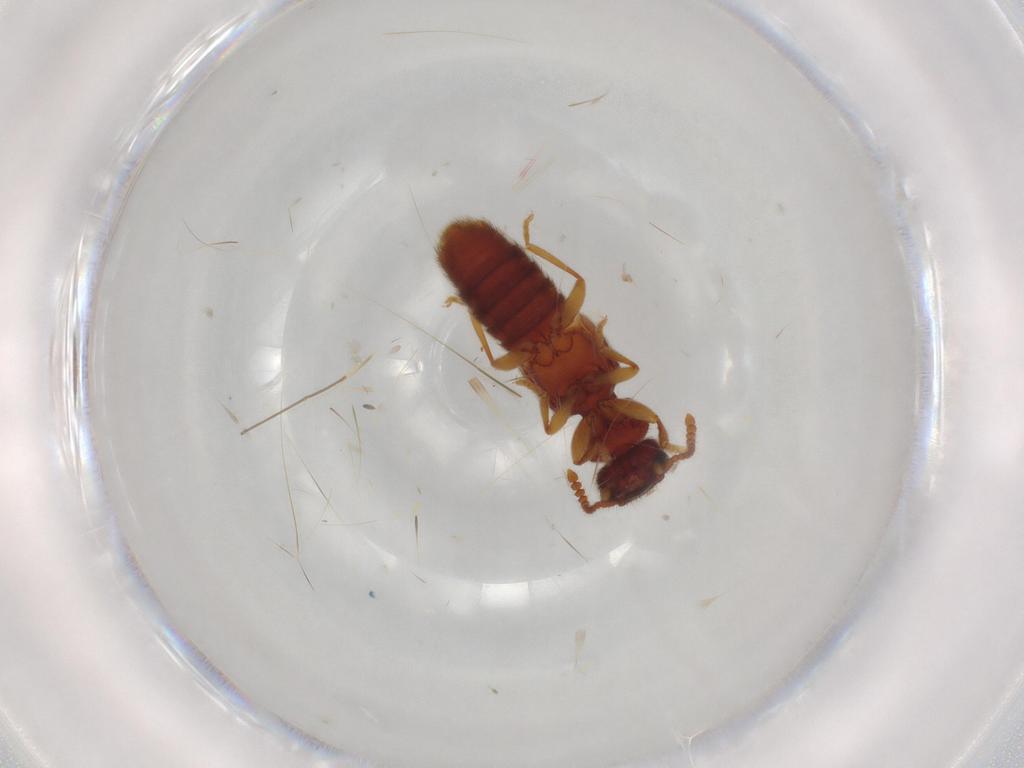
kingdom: Animalia
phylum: Arthropoda
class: Insecta
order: Coleoptera
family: Staphylinidae
